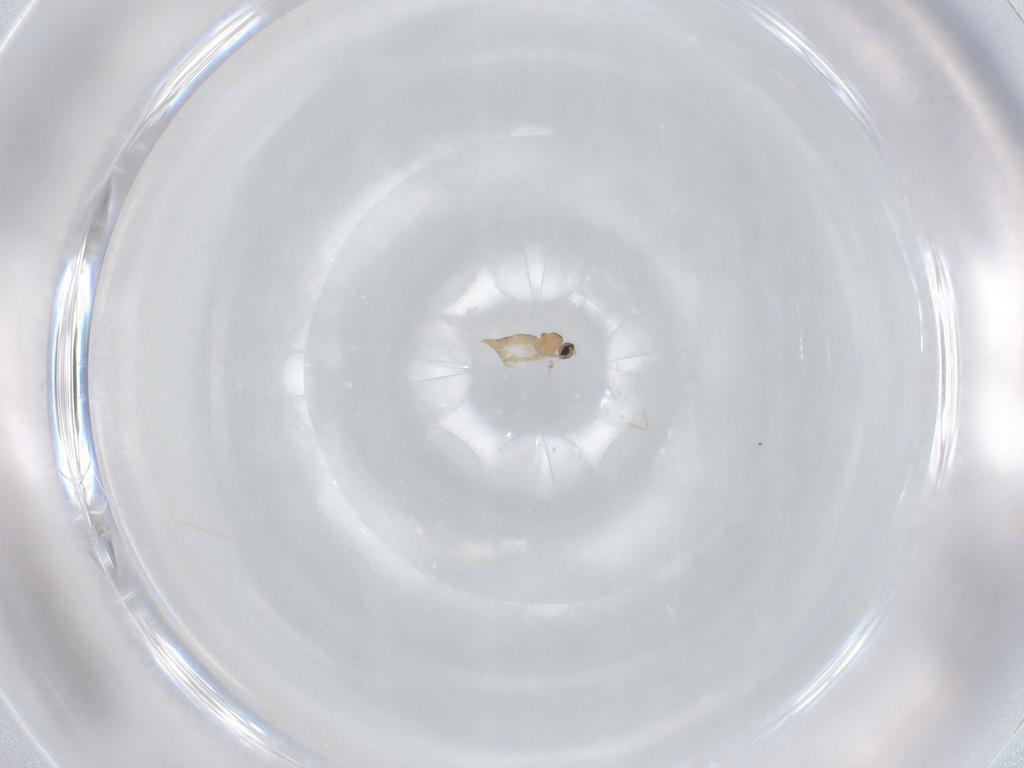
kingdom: Animalia
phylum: Arthropoda
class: Insecta
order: Diptera
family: Cecidomyiidae
